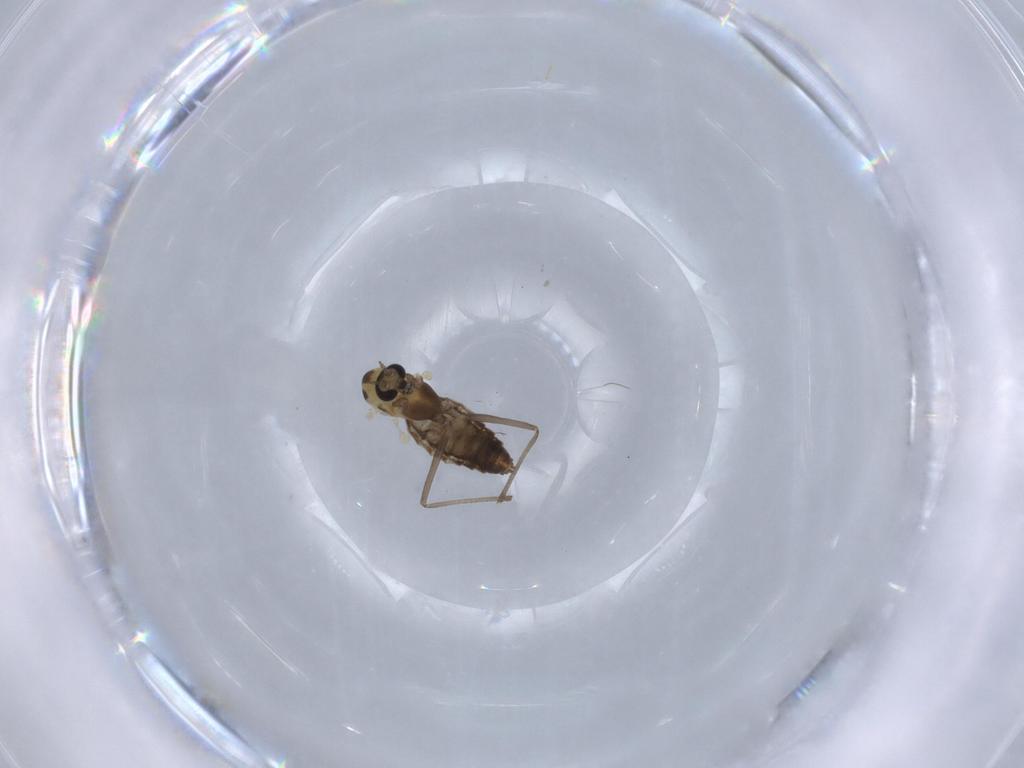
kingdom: Animalia
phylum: Arthropoda
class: Insecta
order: Diptera
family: Chironomidae
